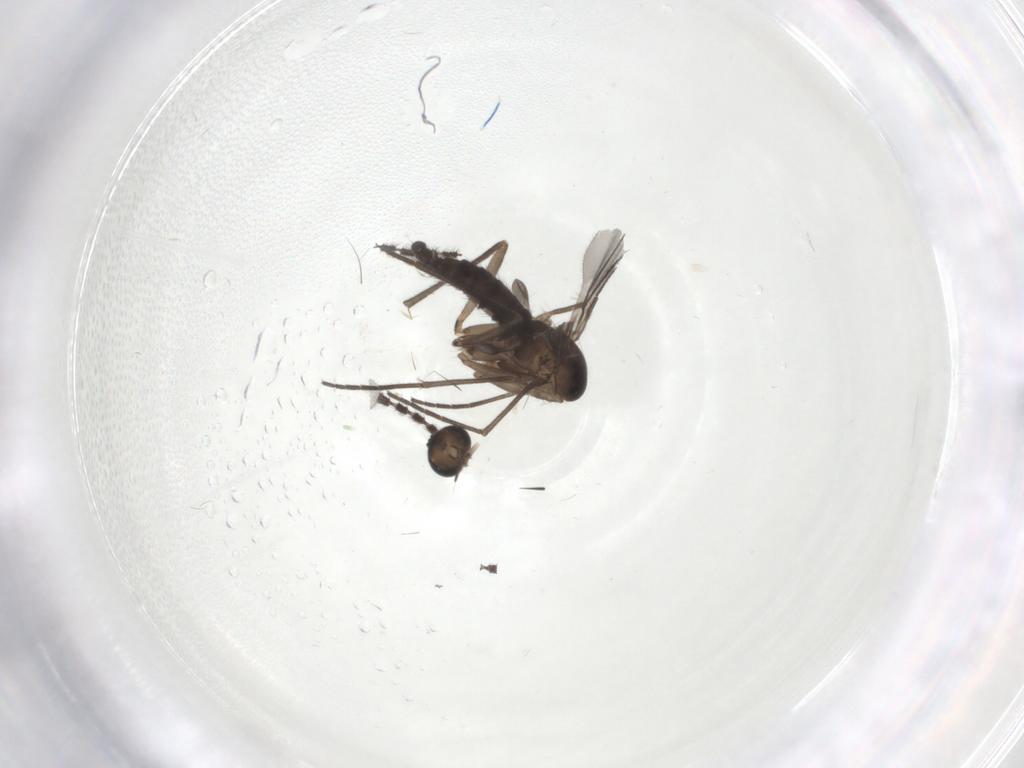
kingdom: Animalia
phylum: Arthropoda
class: Insecta
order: Diptera
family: Sciaridae
